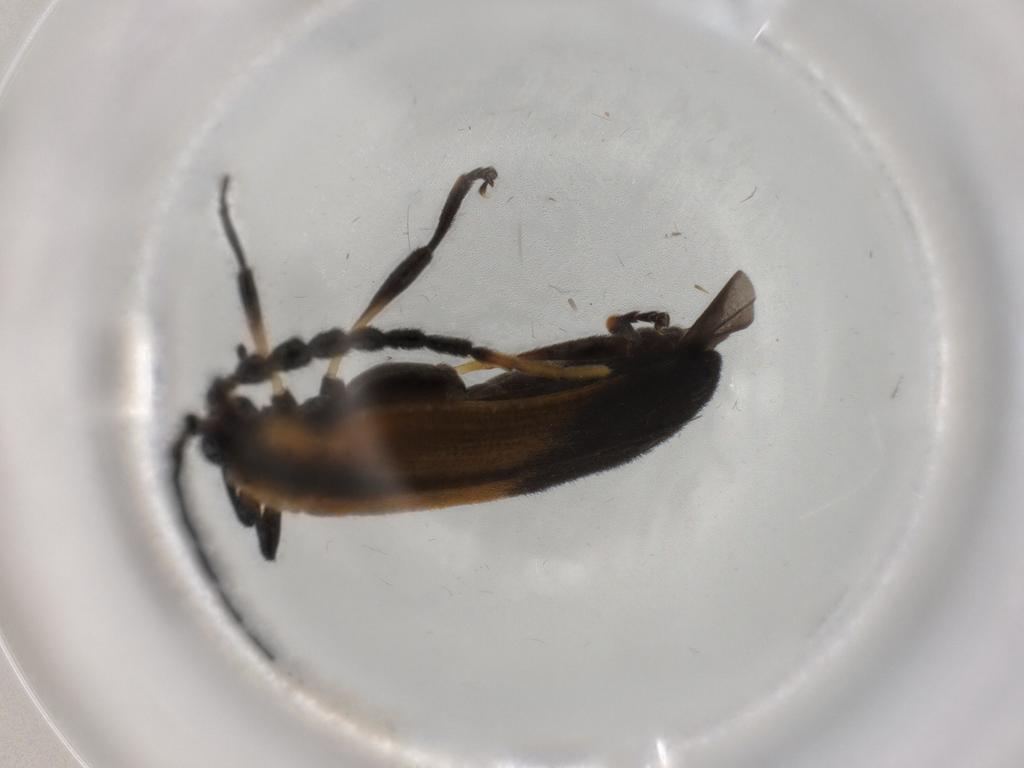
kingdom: Animalia
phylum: Arthropoda
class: Insecta
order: Coleoptera
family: Lycidae
